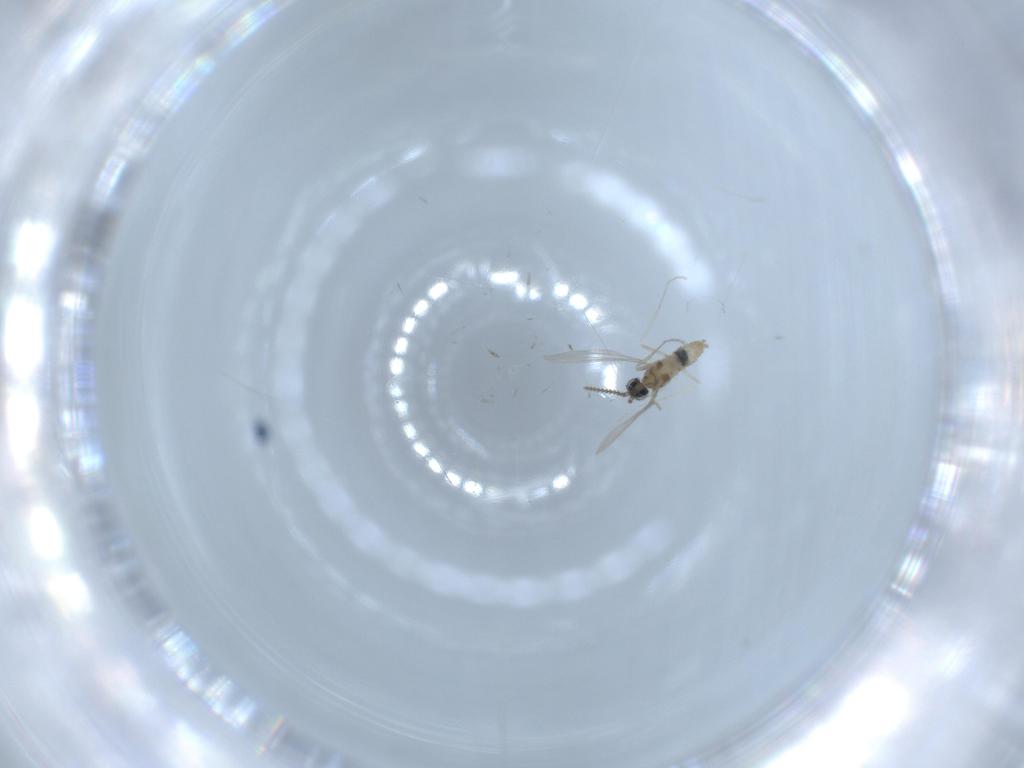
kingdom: Animalia
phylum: Arthropoda
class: Insecta
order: Diptera
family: Cecidomyiidae
